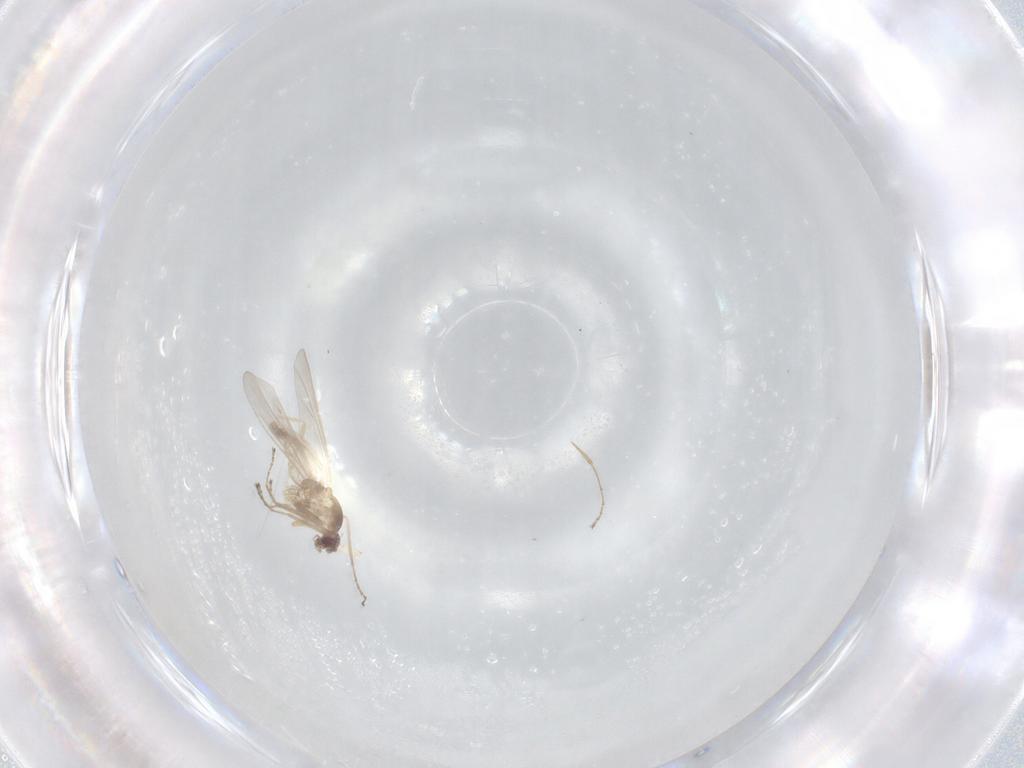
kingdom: Animalia
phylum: Arthropoda
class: Insecta
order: Diptera
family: Cecidomyiidae
